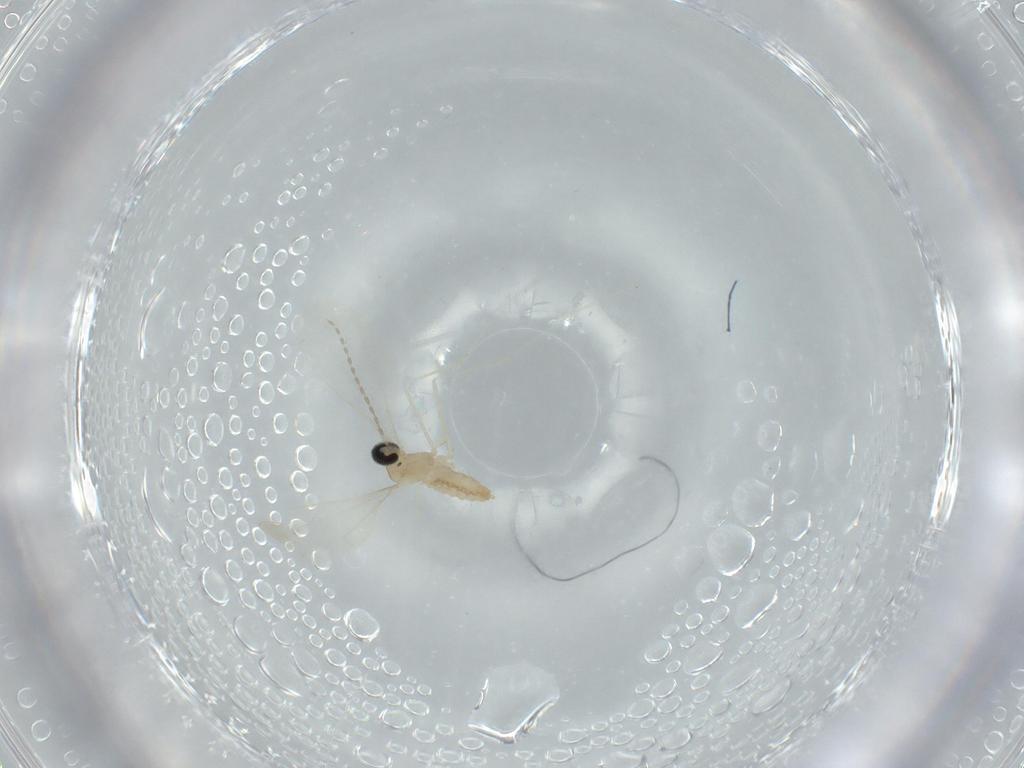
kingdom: Animalia
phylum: Arthropoda
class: Insecta
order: Diptera
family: Cecidomyiidae
